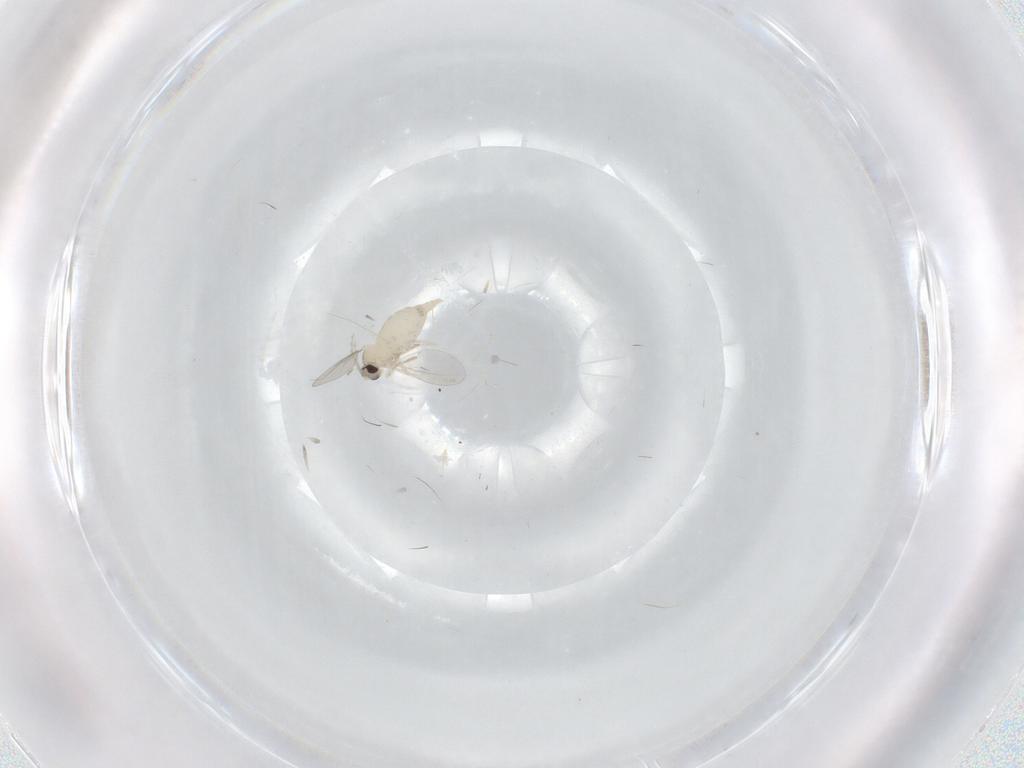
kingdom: Animalia
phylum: Arthropoda
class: Insecta
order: Diptera
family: Cecidomyiidae
